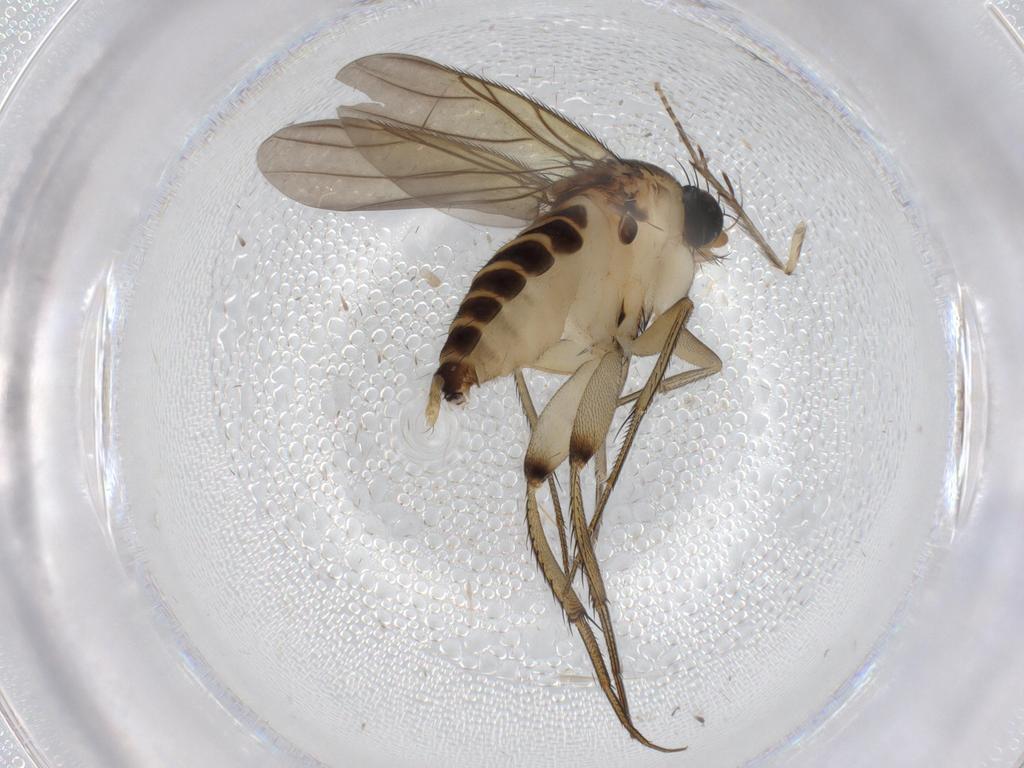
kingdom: Animalia
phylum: Arthropoda
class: Insecta
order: Diptera
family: Phoridae
